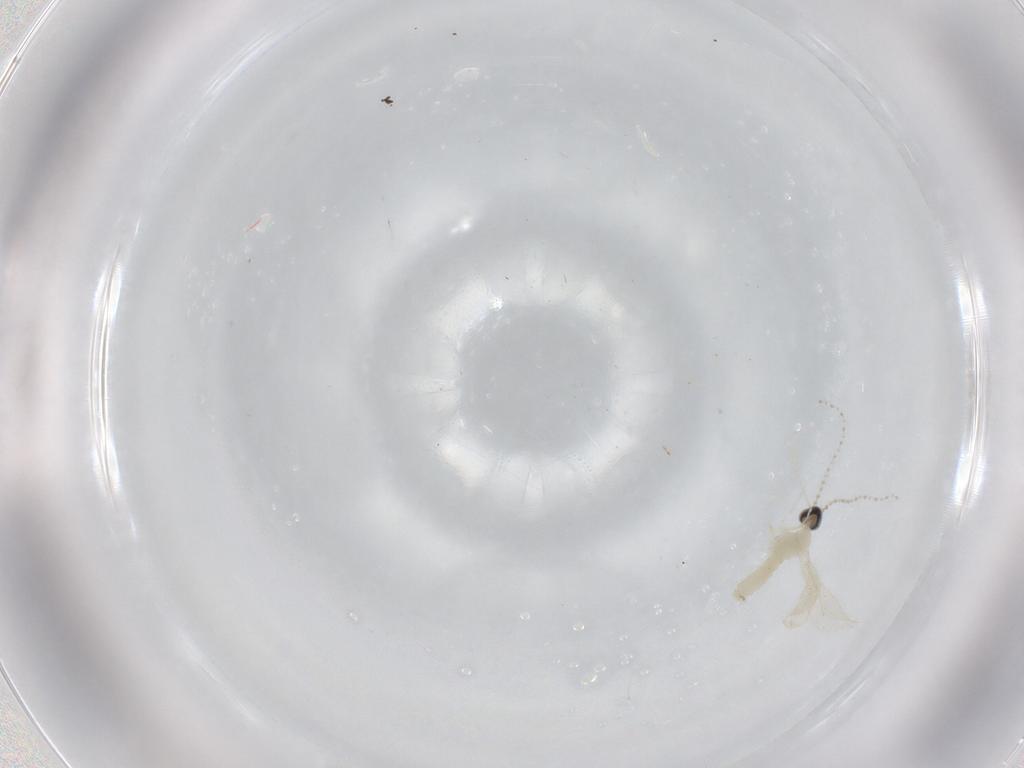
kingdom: Animalia
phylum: Arthropoda
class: Insecta
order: Diptera
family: Cecidomyiidae
